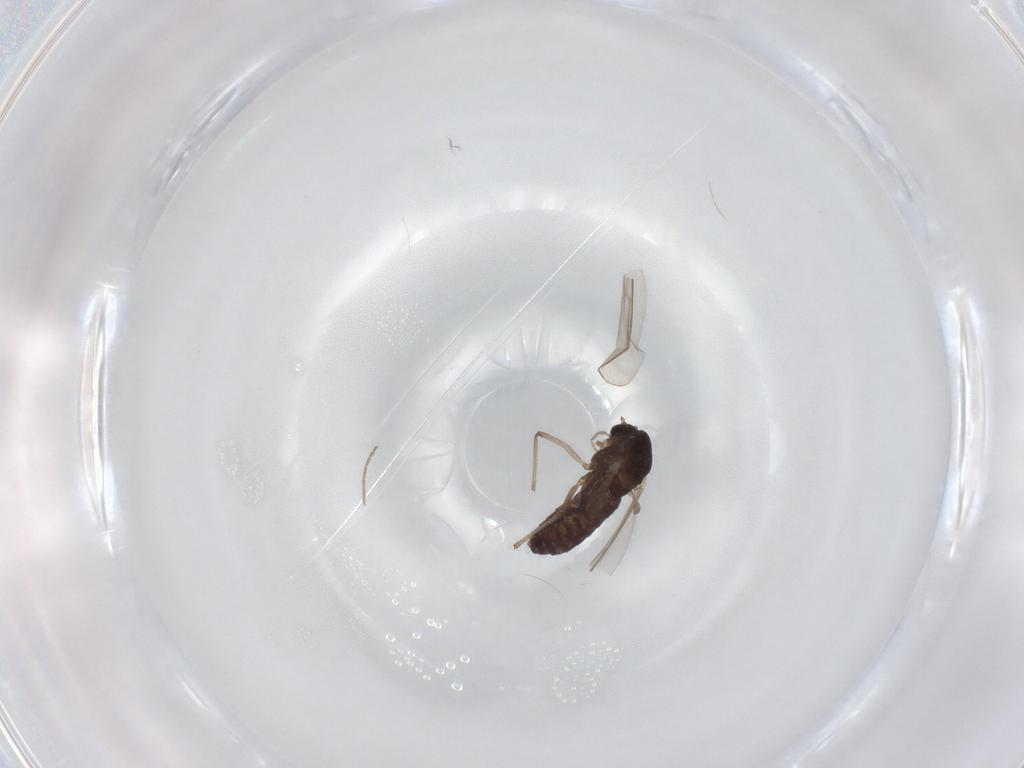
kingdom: Animalia
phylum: Arthropoda
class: Insecta
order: Diptera
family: Chironomidae
